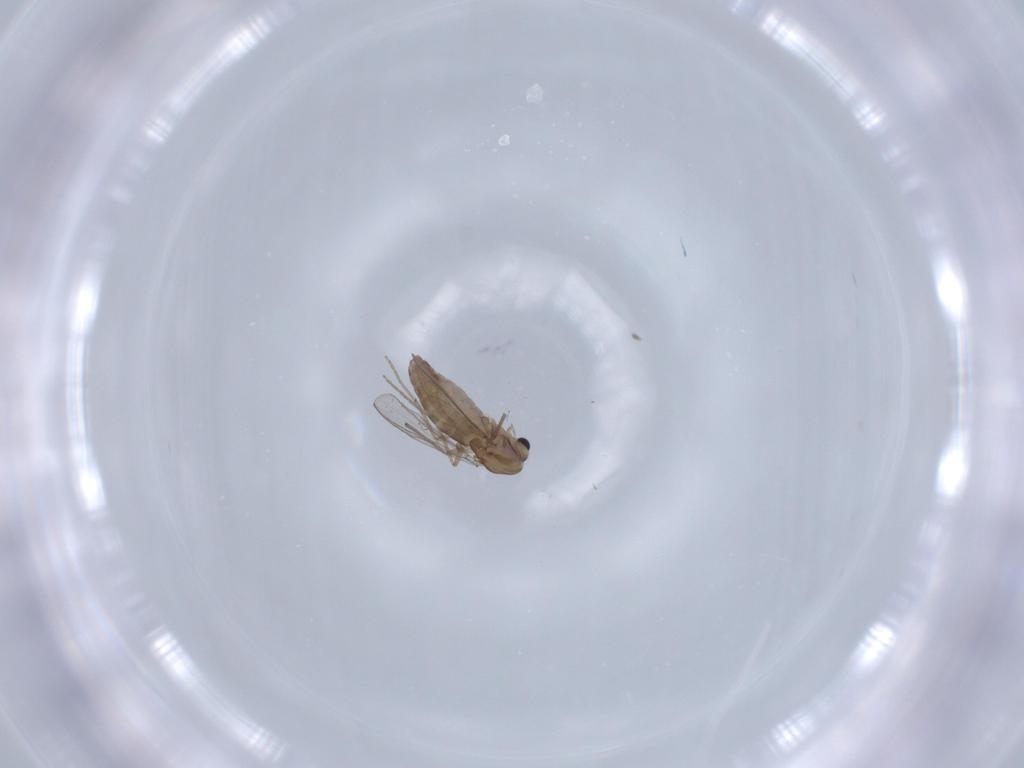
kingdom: Animalia
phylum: Arthropoda
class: Insecta
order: Diptera
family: Chironomidae
